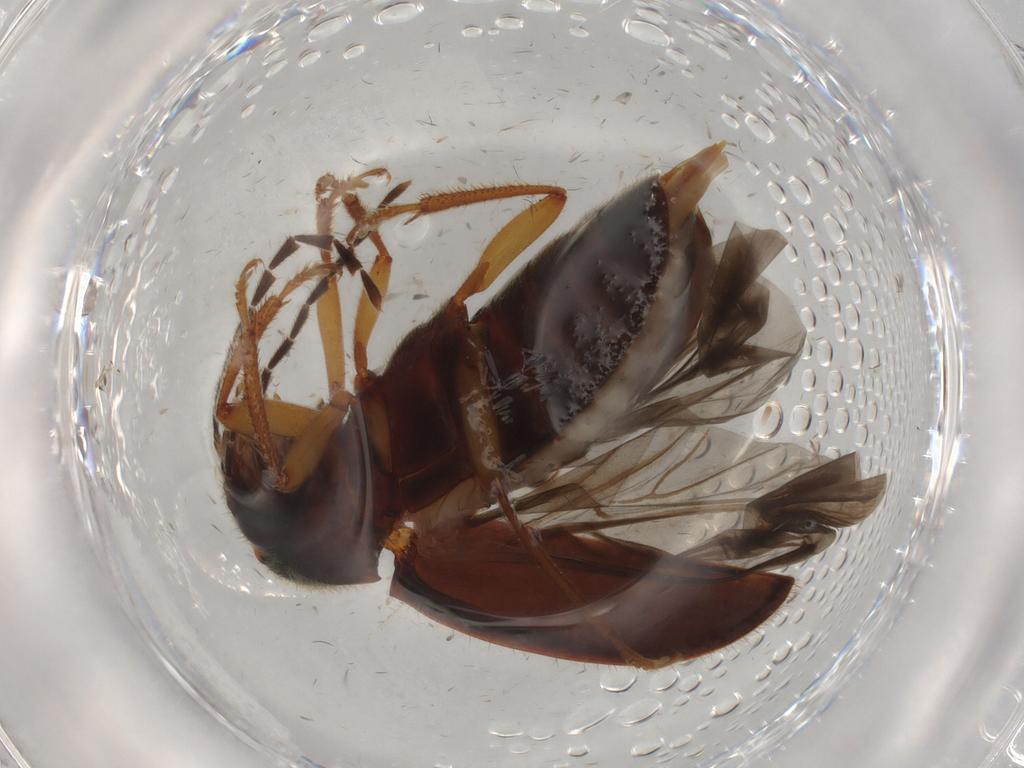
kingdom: Animalia
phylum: Arthropoda
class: Insecta
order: Coleoptera
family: Ptilodactylidae
